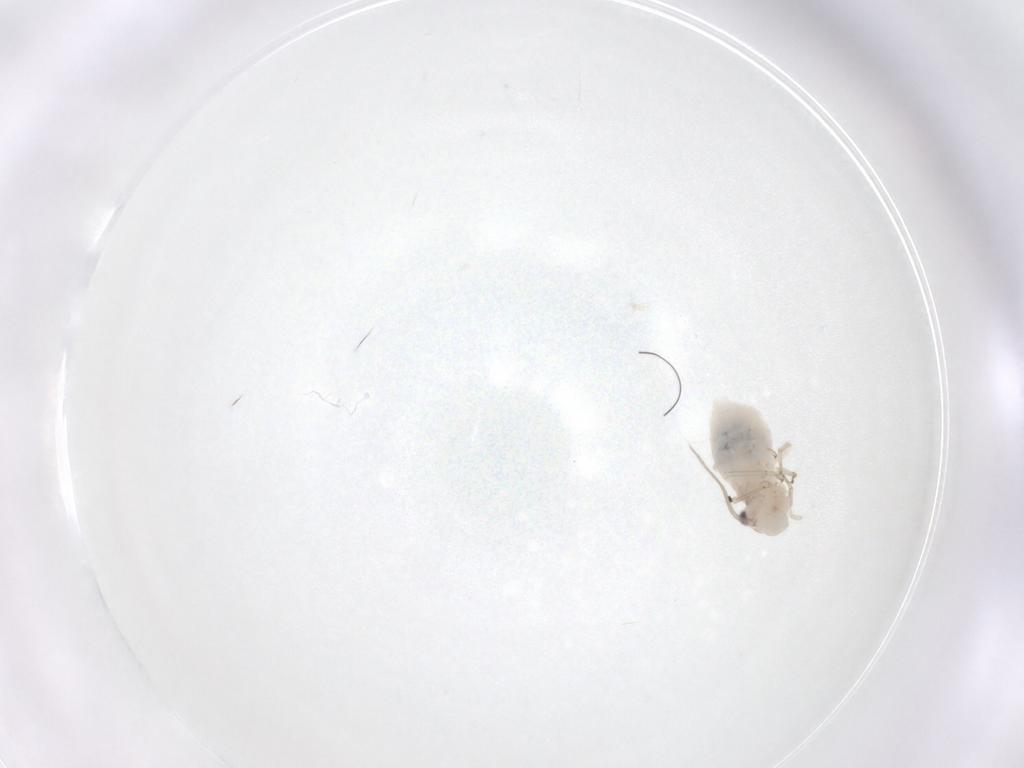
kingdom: Animalia
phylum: Arthropoda
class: Insecta
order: Psocodea
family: Caeciliusidae
